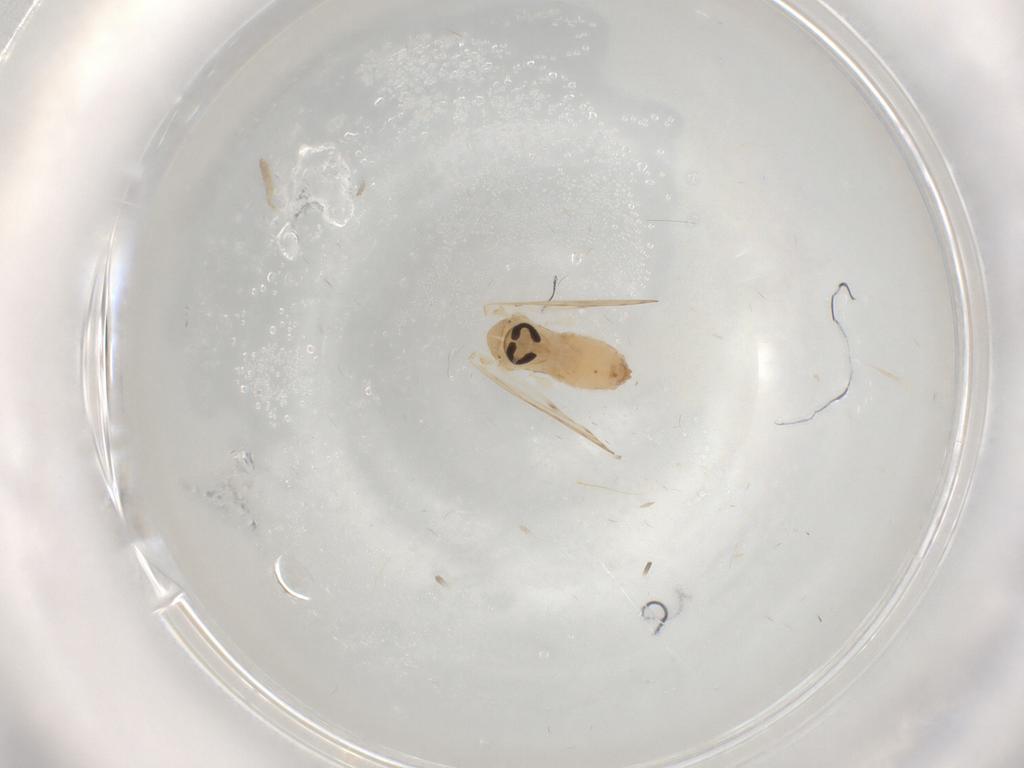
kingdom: Animalia
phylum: Arthropoda
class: Insecta
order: Diptera
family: Psychodidae
